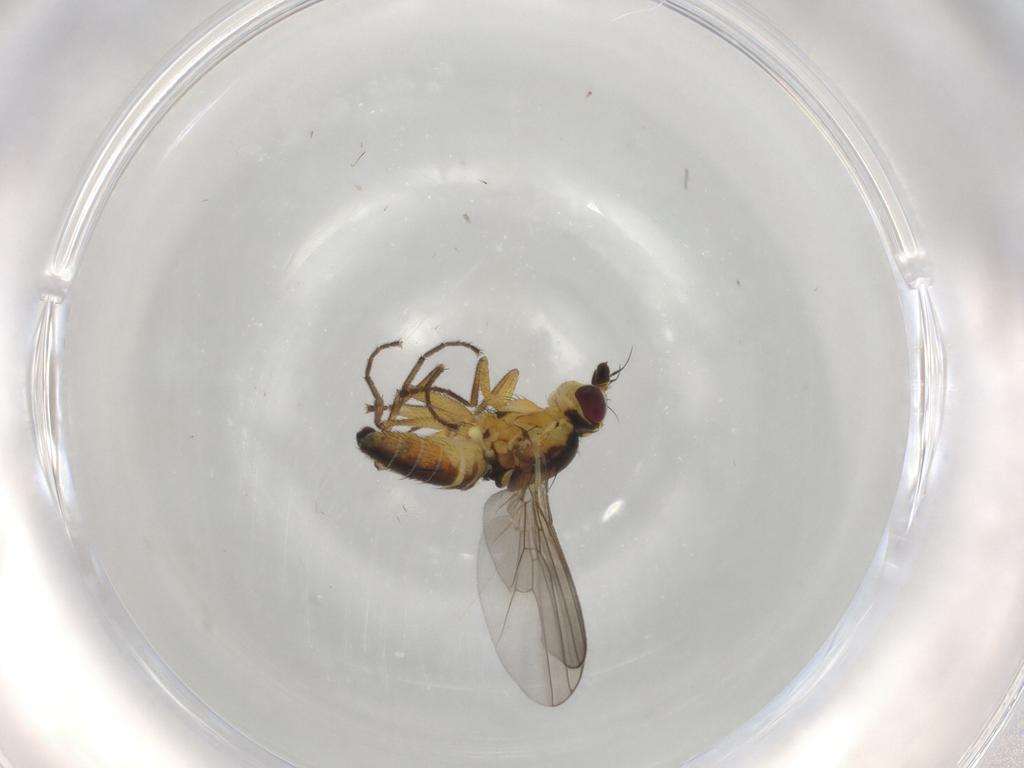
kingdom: Animalia
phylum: Arthropoda
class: Insecta
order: Diptera
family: Agromyzidae
